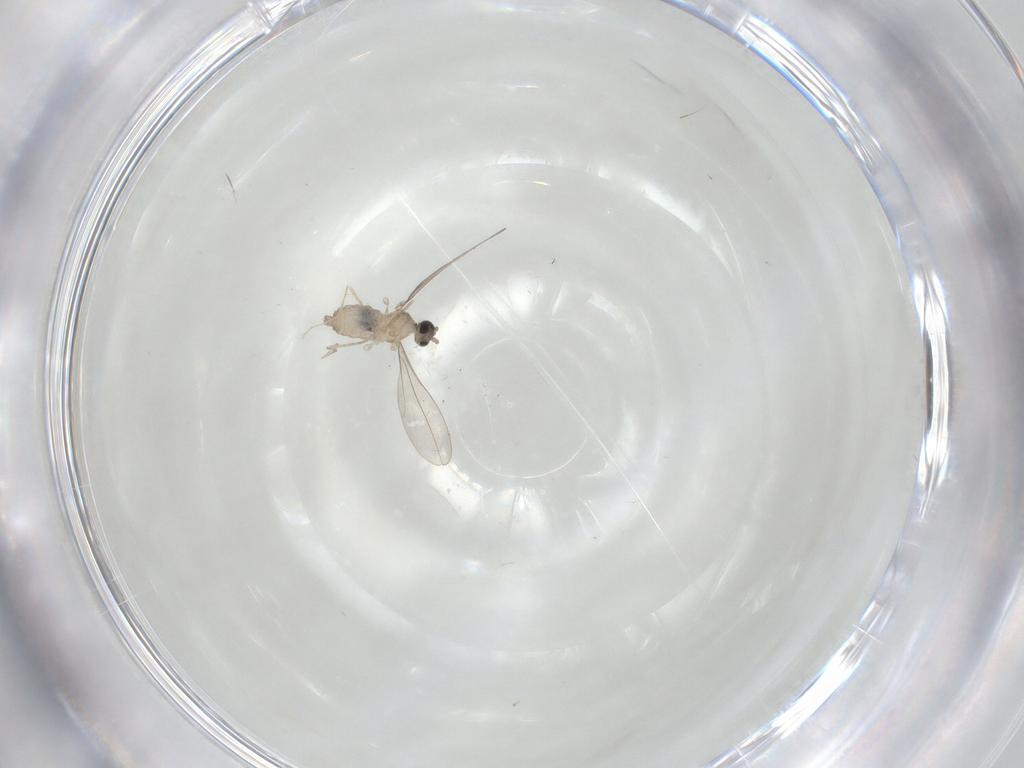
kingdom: Animalia
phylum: Arthropoda
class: Insecta
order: Diptera
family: Cecidomyiidae
